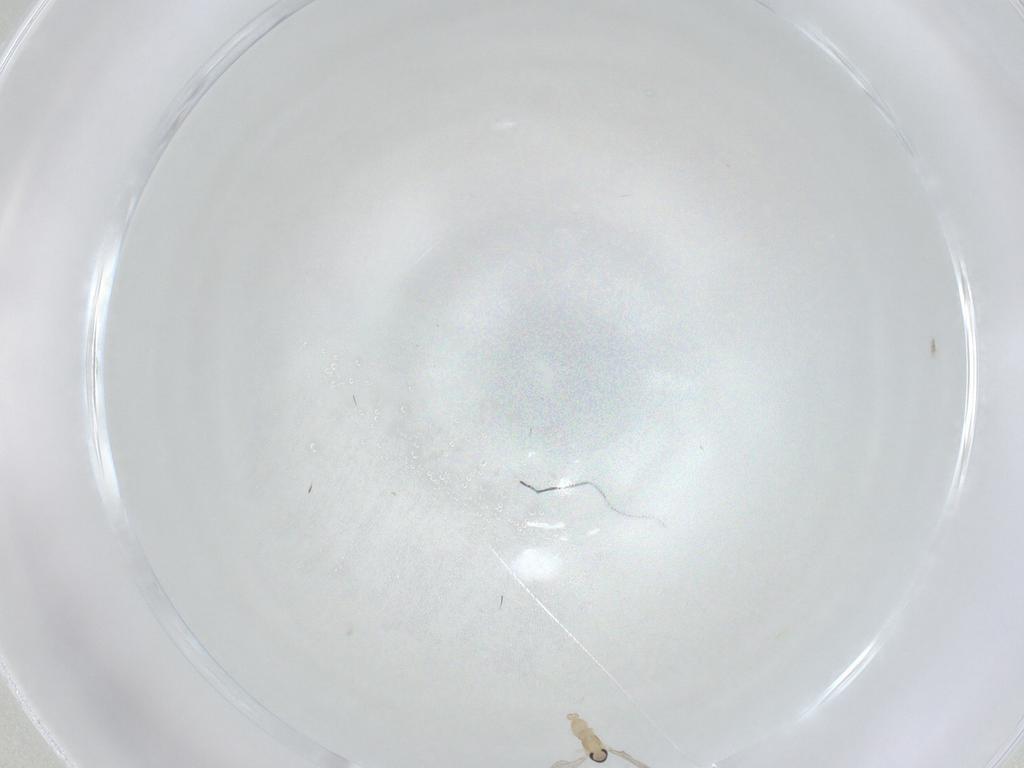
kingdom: Animalia
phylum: Arthropoda
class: Insecta
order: Diptera
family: Cecidomyiidae
